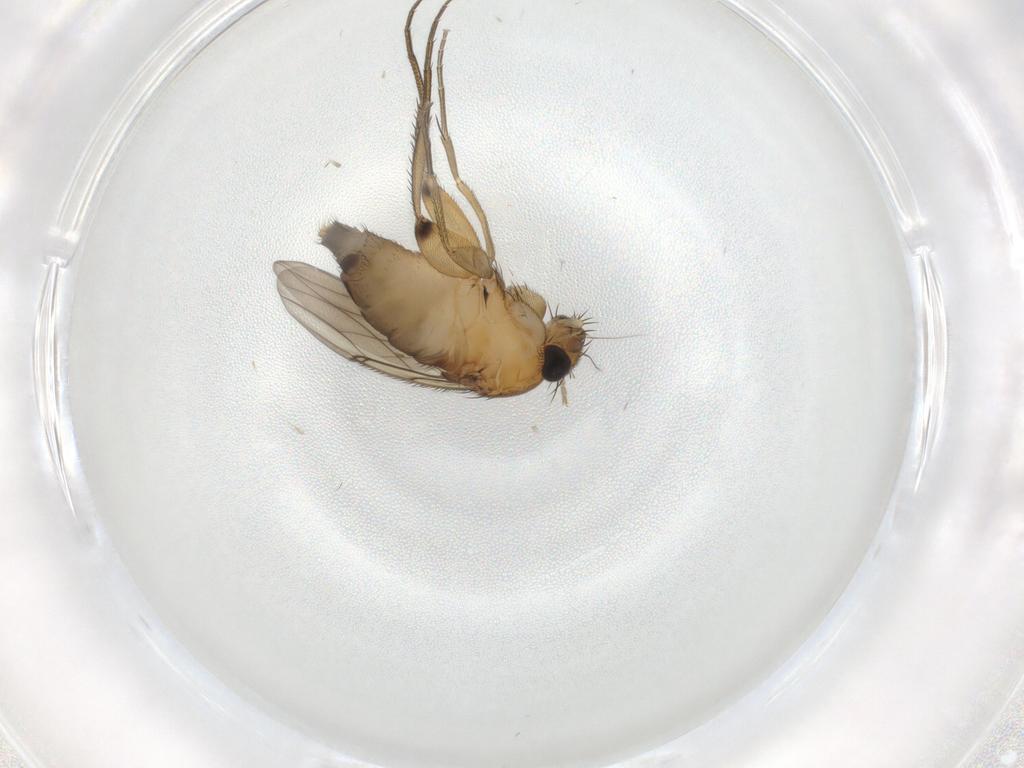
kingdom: Animalia
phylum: Arthropoda
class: Insecta
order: Diptera
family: Phoridae
